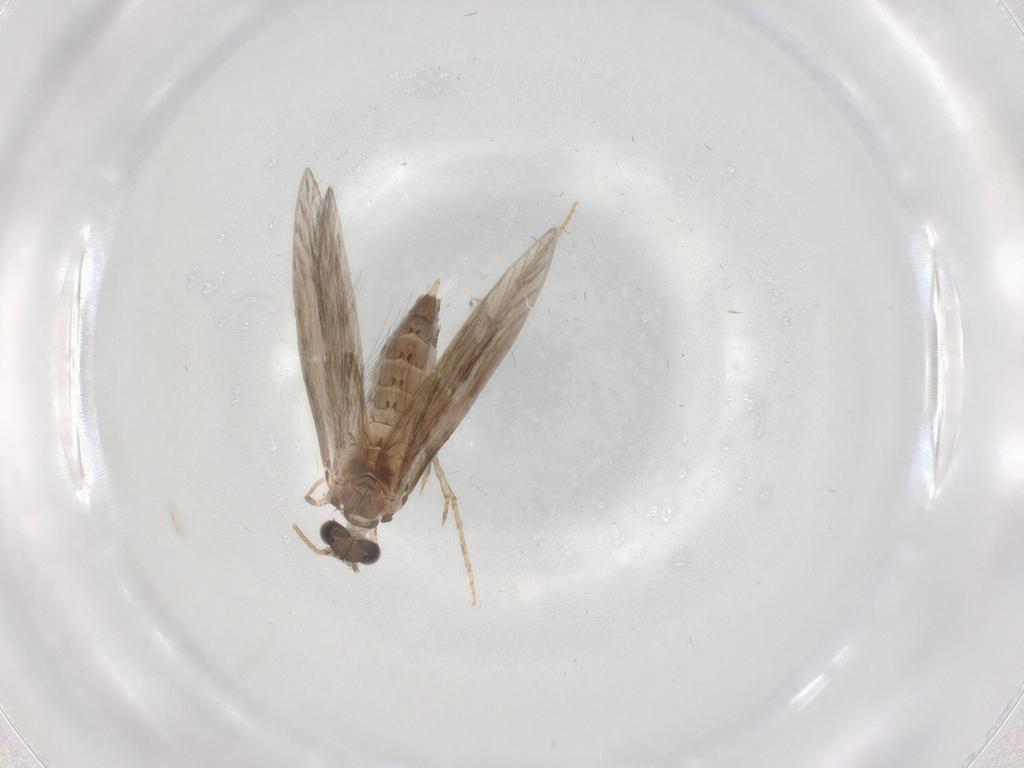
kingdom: Animalia
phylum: Arthropoda
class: Insecta
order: Trichoptera
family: Hydroptilidae
